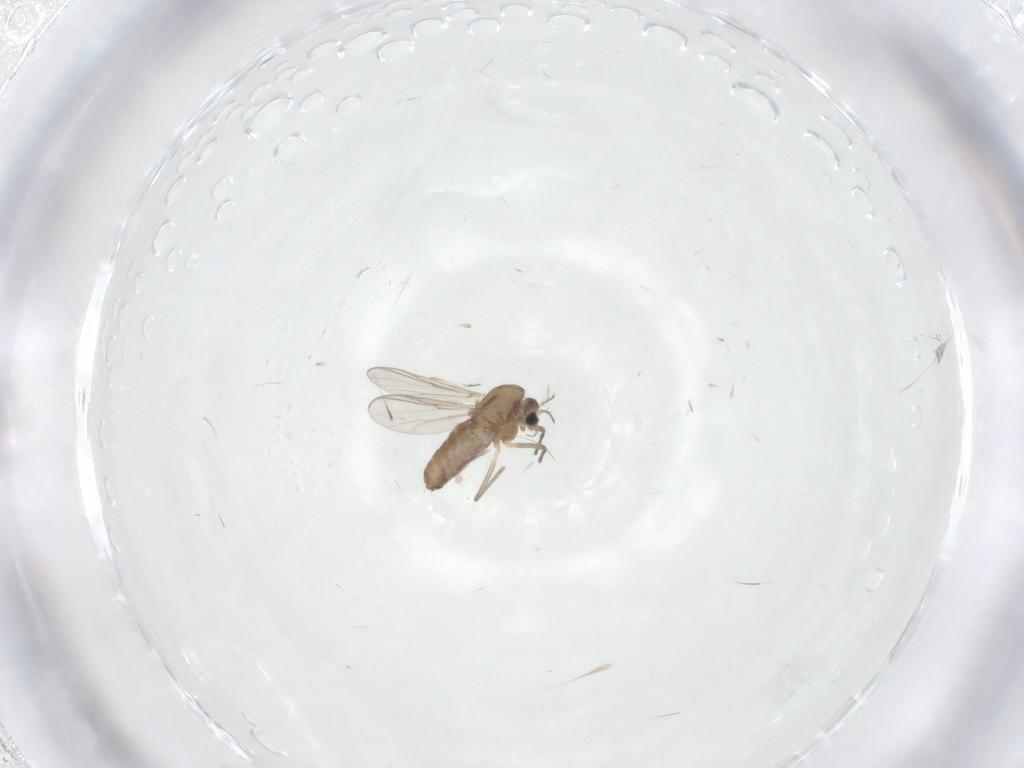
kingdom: Animalia
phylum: Arthropoda
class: Insecta
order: Diptera
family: Chironomidae
